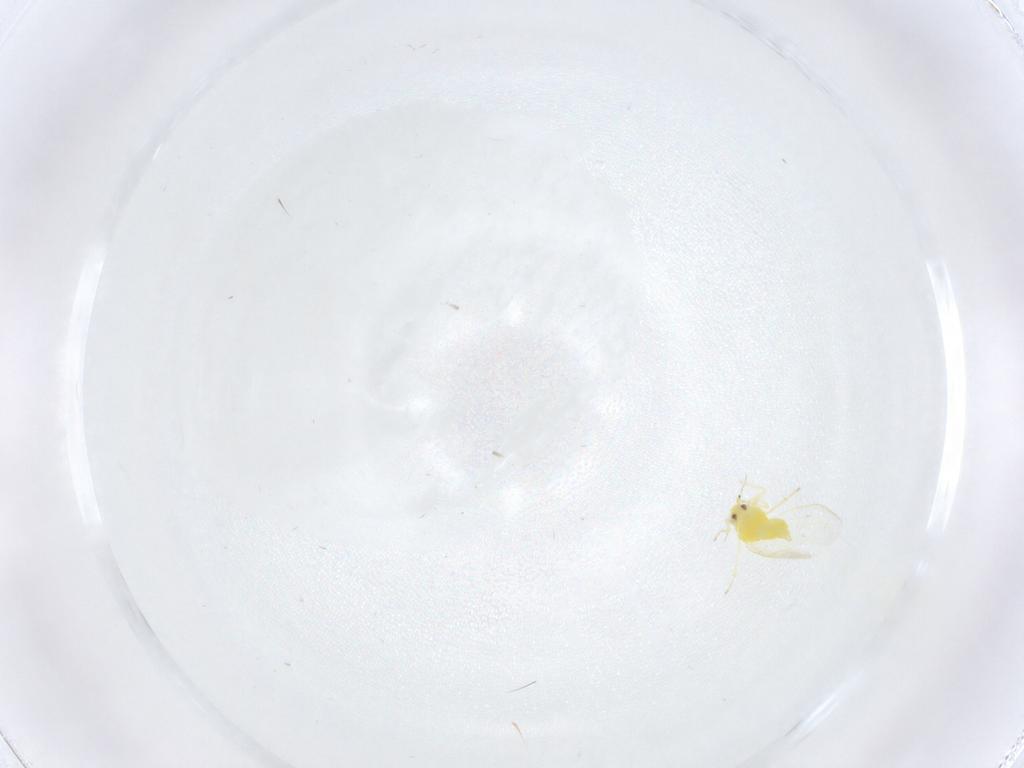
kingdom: Animalia
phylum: Arthropoda
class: Insecta
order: Hemiptera
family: Aleyrodidae
